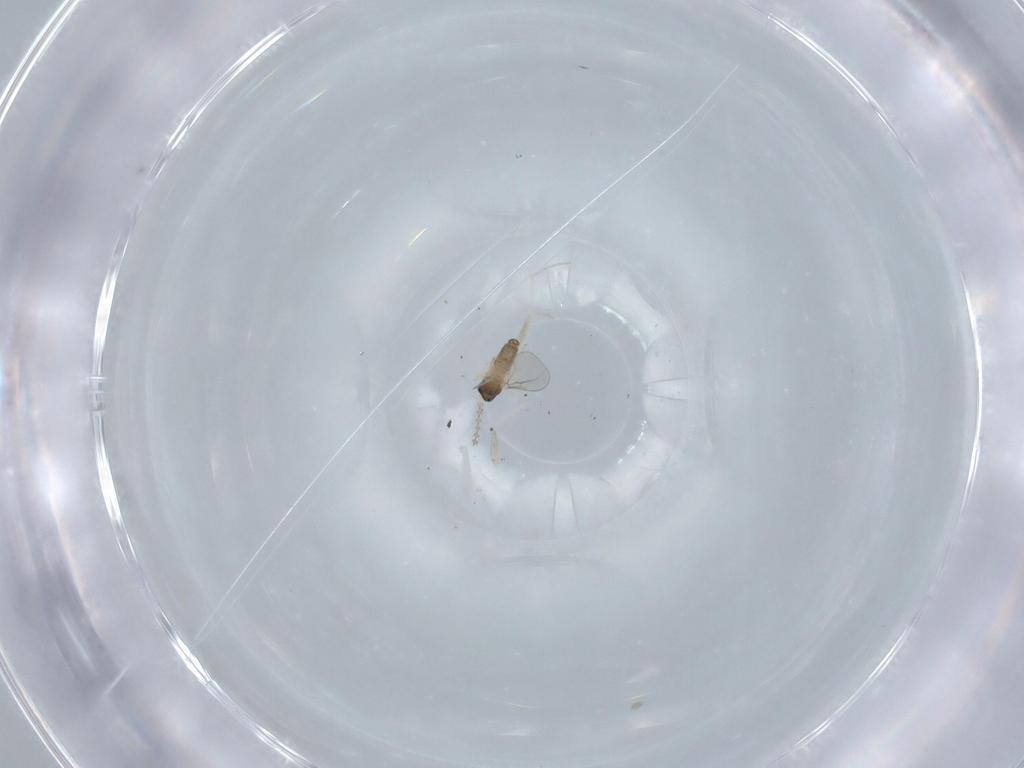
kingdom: Animalia
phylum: Arthropoda
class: Insecta
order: Diptera
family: Cecidomyiidae
